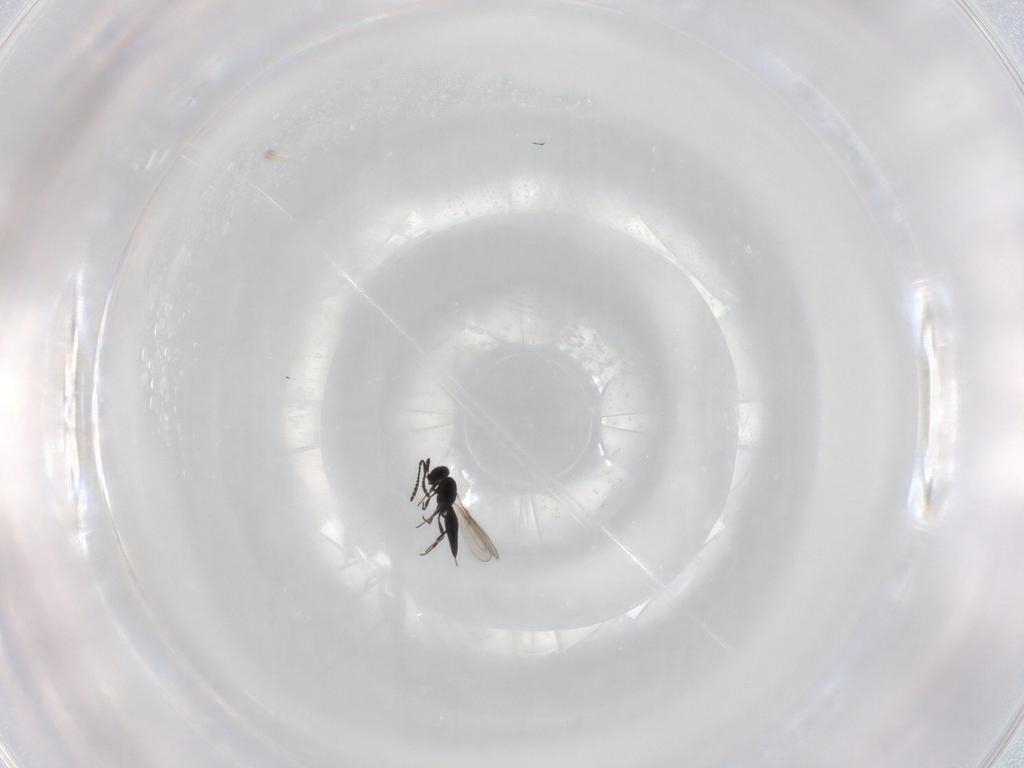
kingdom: Animalia
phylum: Arthropoda
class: Insecta
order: Hymenoptera
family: Scelionidae
